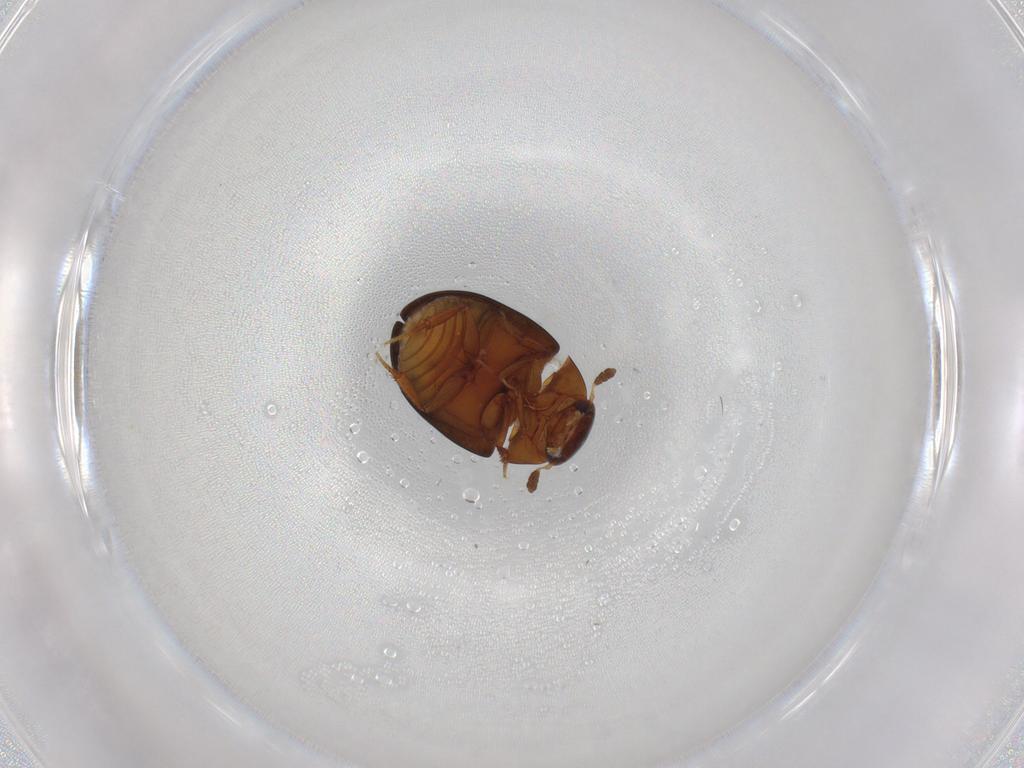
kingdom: Animalia
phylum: Arthropoda
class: Insecta
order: Coleoptera
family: Hydrophilidae
